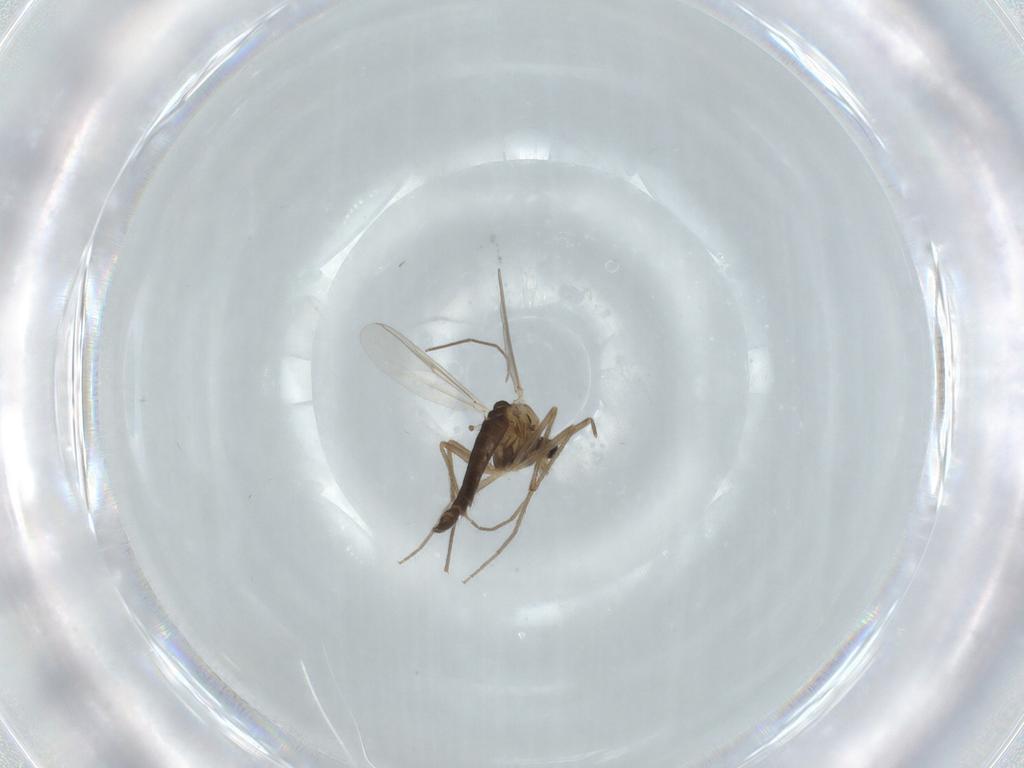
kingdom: Animalia
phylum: Arthropoda
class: Insecta
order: Diptera
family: Chironomidae
